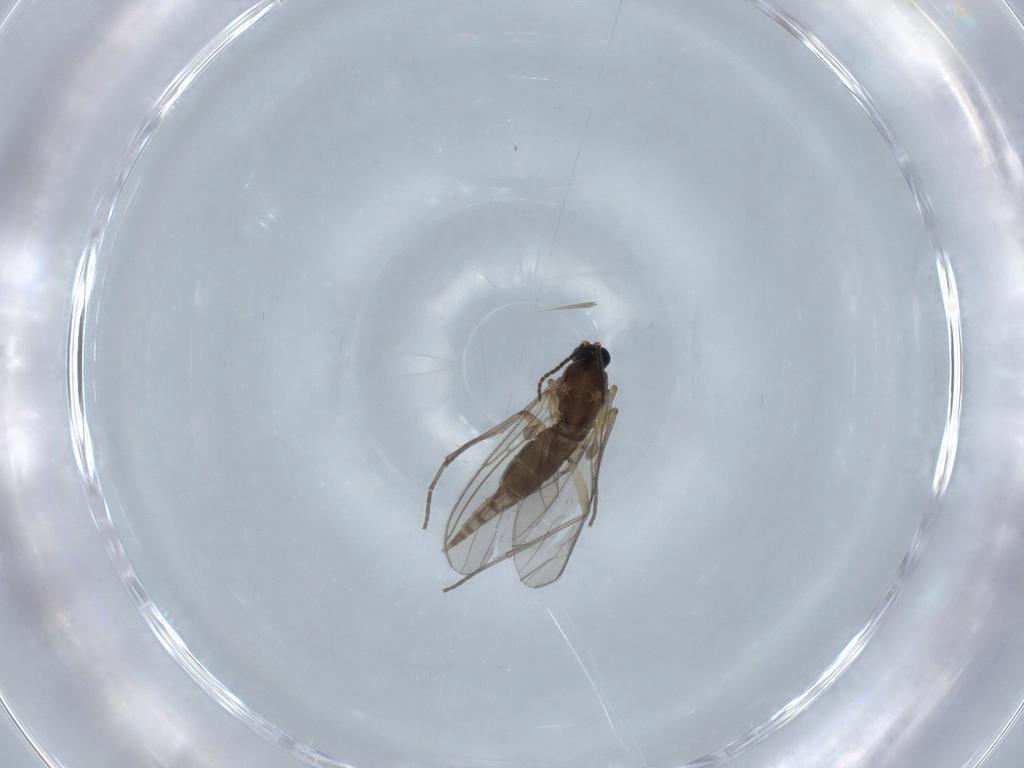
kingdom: Animalia
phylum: Arthropoda
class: Insecta
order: Diptera
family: Sciaridae
